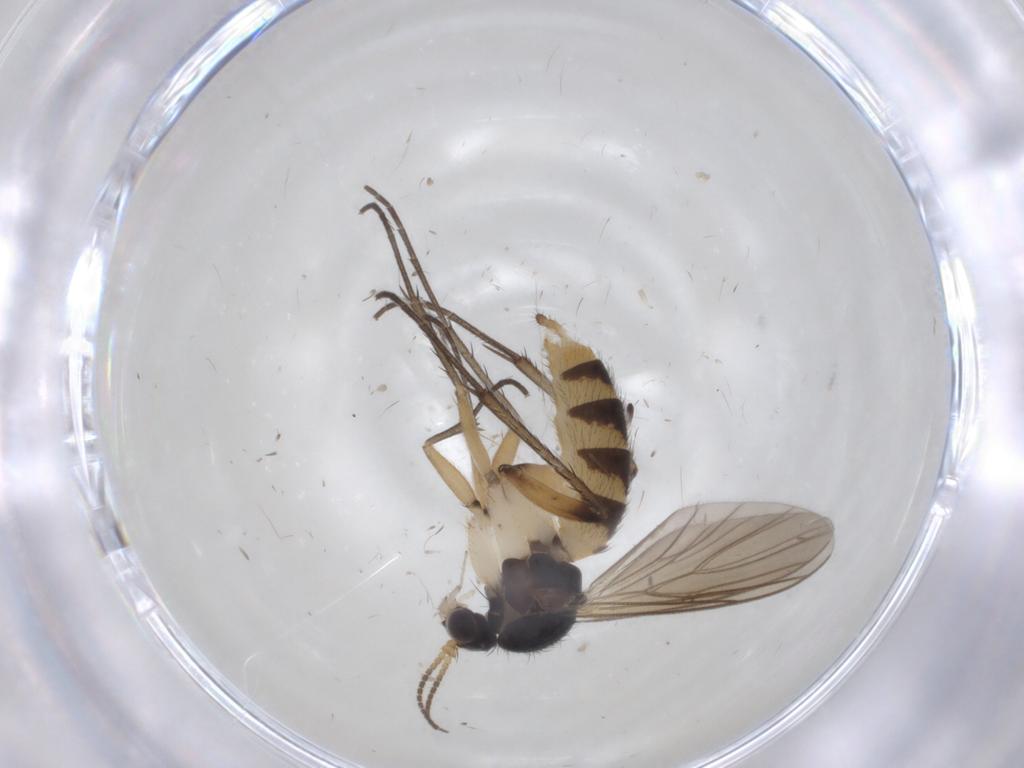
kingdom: Animalia
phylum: Arthropoda
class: Insecta
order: Diptera
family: Mycetophilidae
